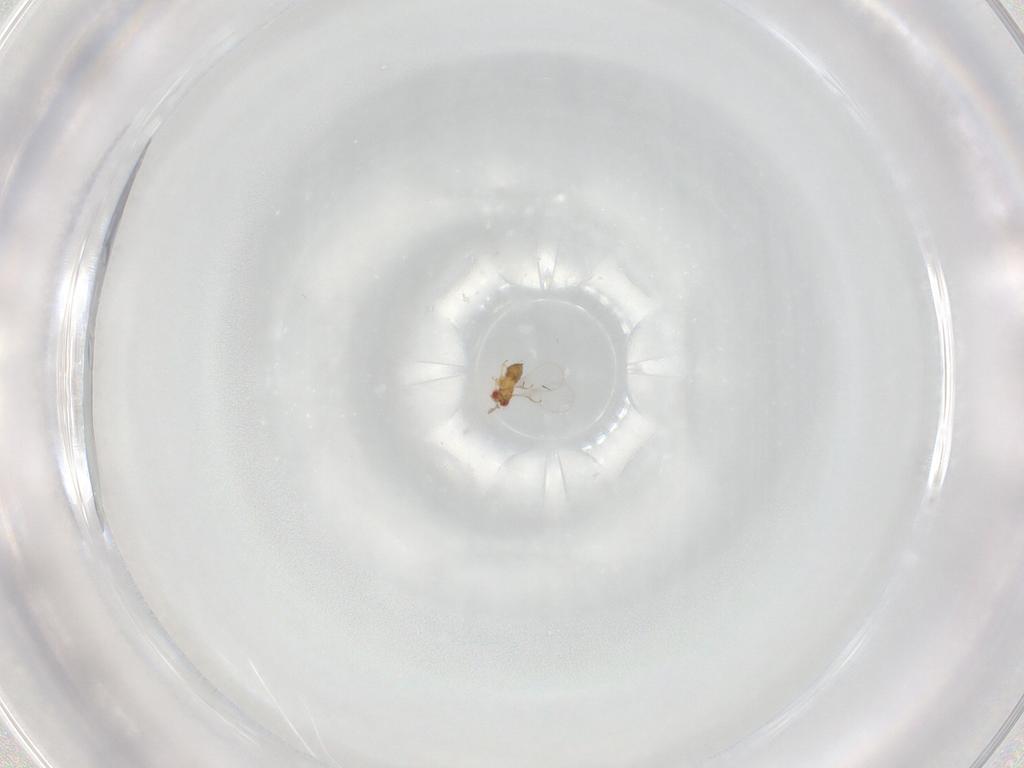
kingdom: Animalia
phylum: Arthropoda
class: Insecta
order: Hymenoptera
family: Trichogrammatidae
